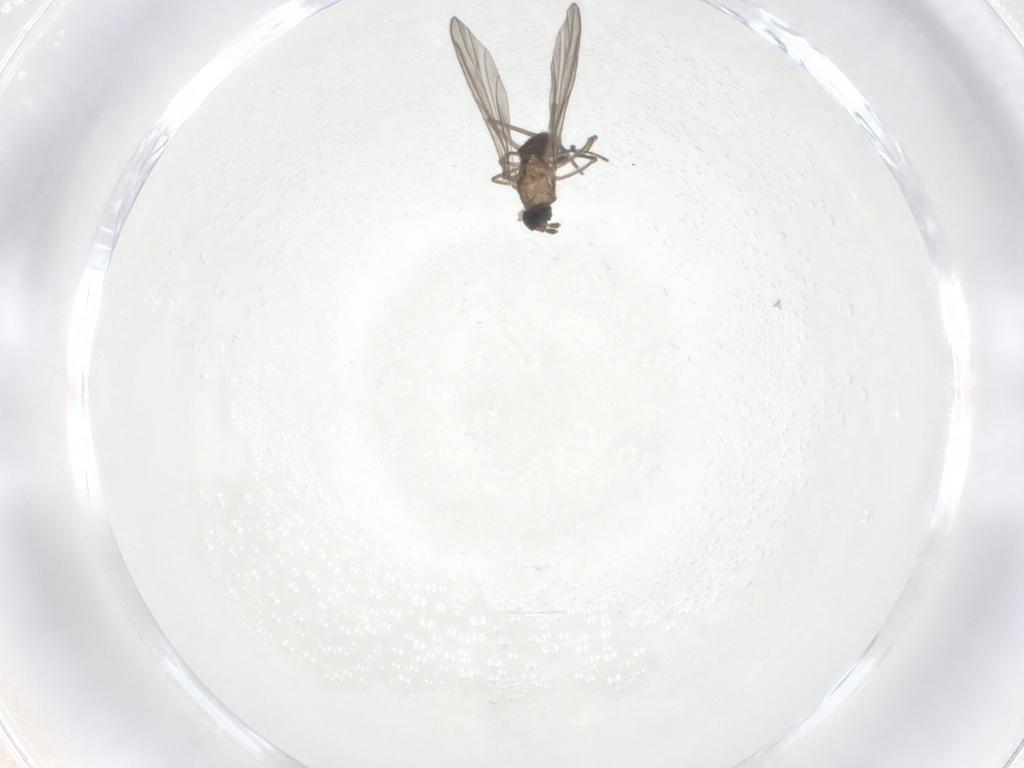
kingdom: Animalia
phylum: Arthropoda
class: Insecta
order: Diptera
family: Sciaridae
